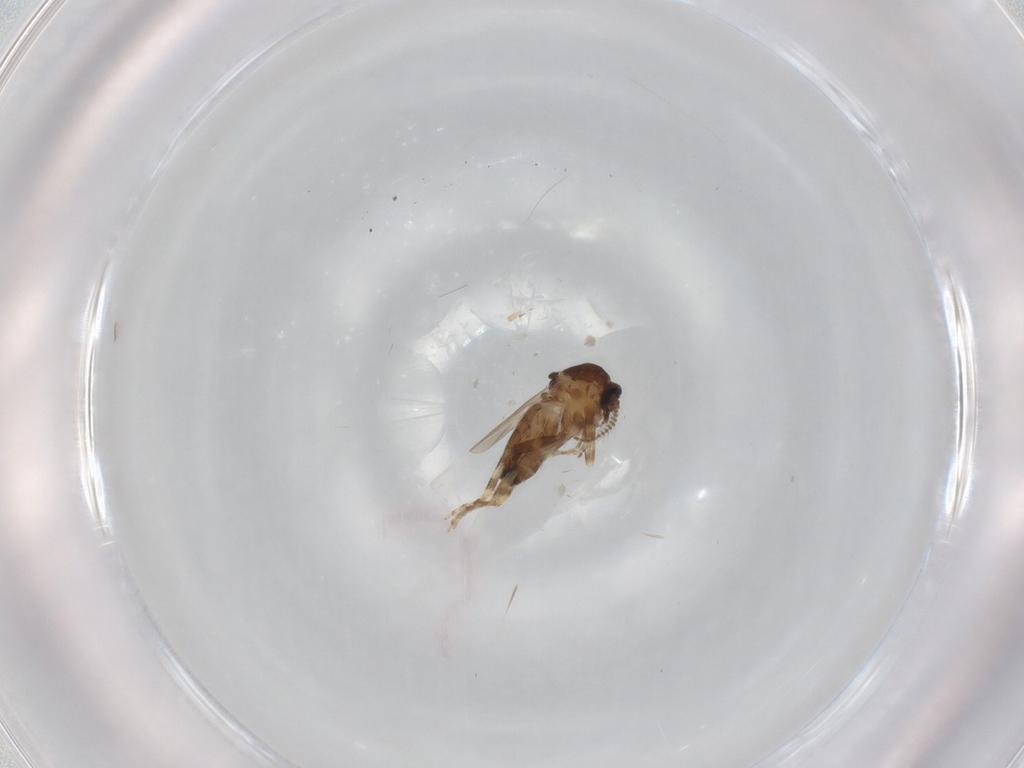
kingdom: Animalia
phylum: Arthropoda
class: Insecta
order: Diptera
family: Ceratopogonidae
